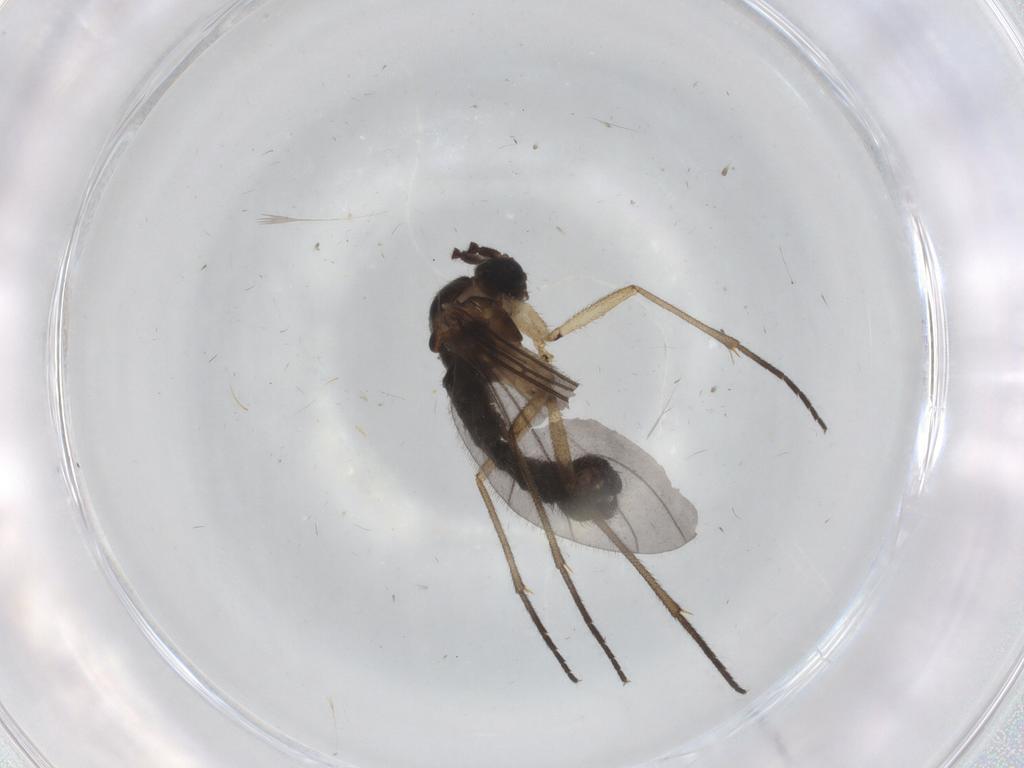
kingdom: Animalia
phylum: Arthropoda
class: Insecta
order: Diptera
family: Sciaridae
